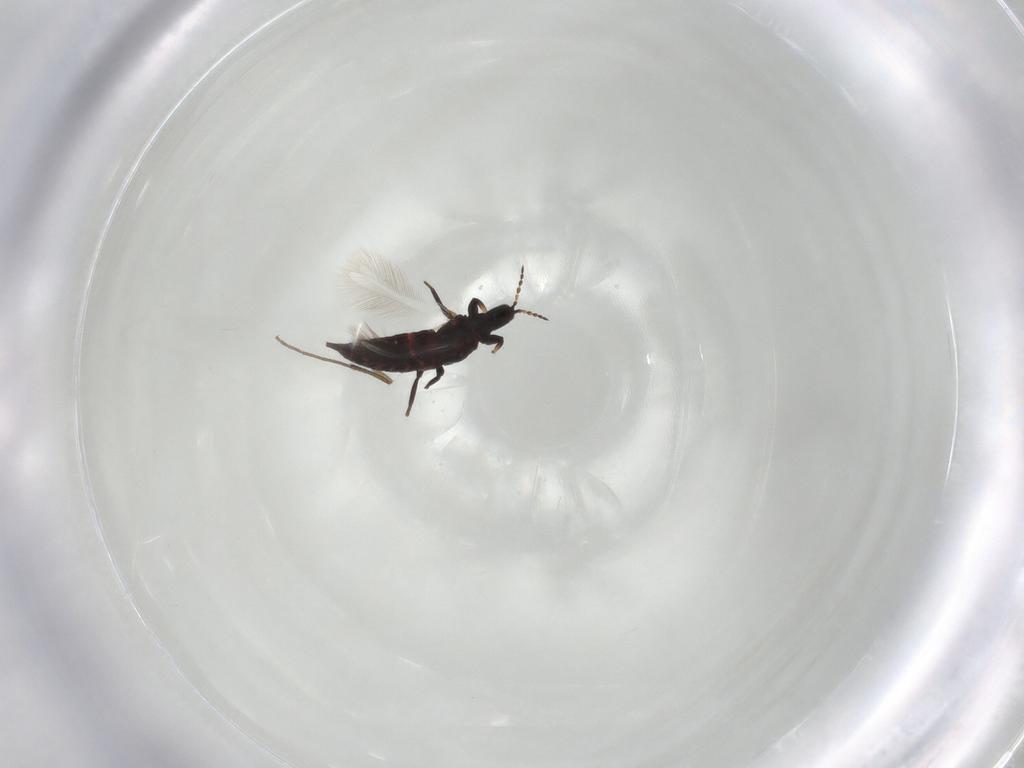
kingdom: Animalia
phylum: Arthropoda
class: Insecta
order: Thysanoptera
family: Phlaeothripidae
